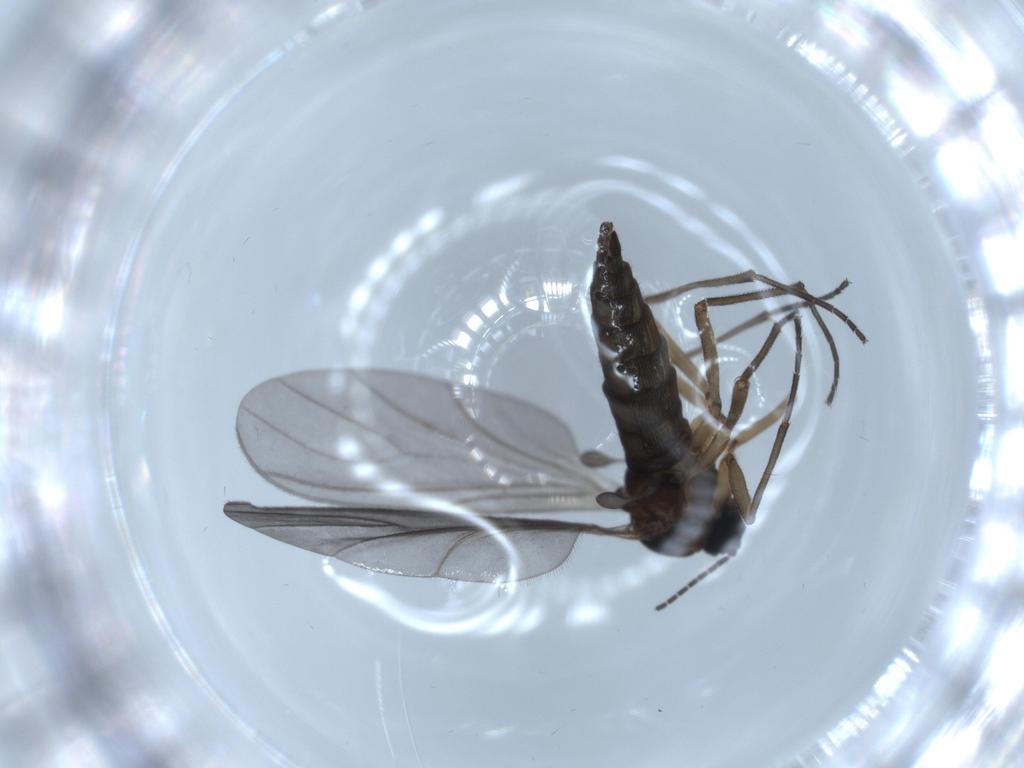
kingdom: Animalia
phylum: Arthropoda
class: Insecta
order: Diptera
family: Sciaridae
